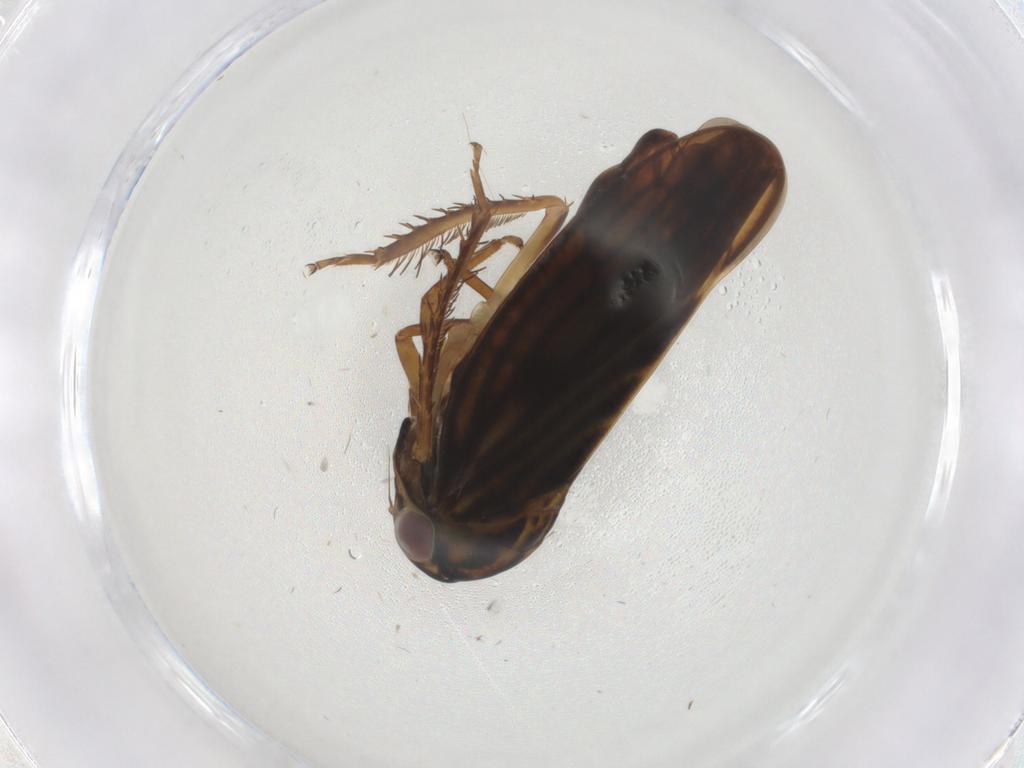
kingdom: Animalia
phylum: Arthropoda
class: Insecta
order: Hemiptera
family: Cicadellidae
